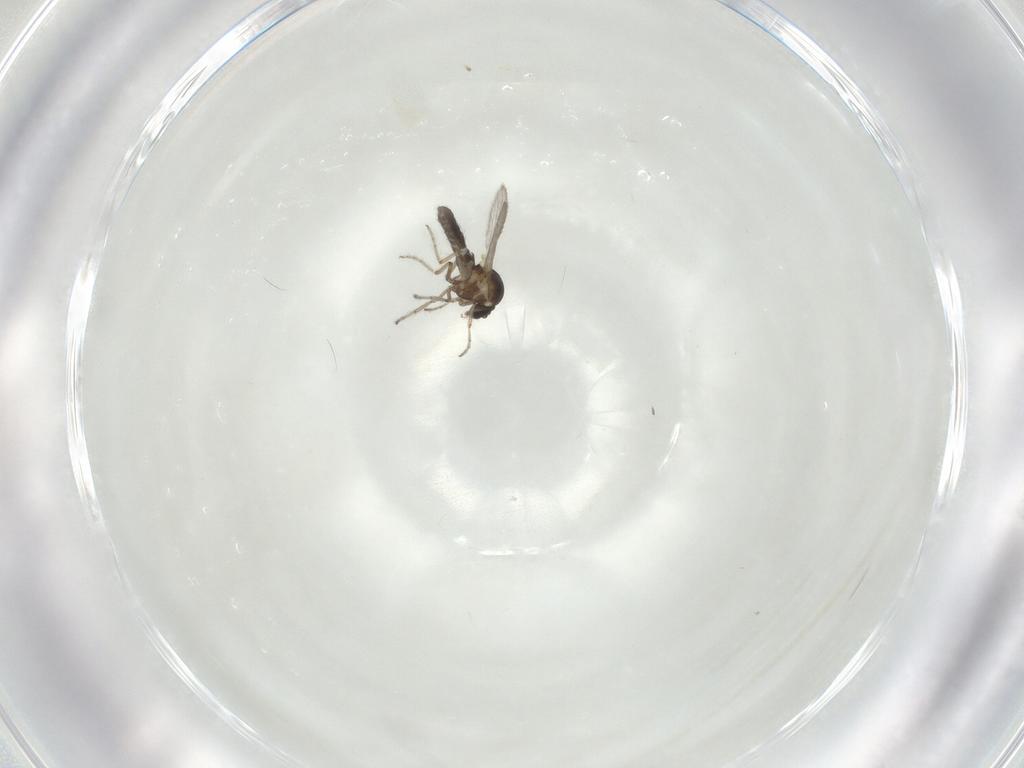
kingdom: Animalia
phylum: Arthropoda
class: Insecta
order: Diptera
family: Ceratopogonidae
